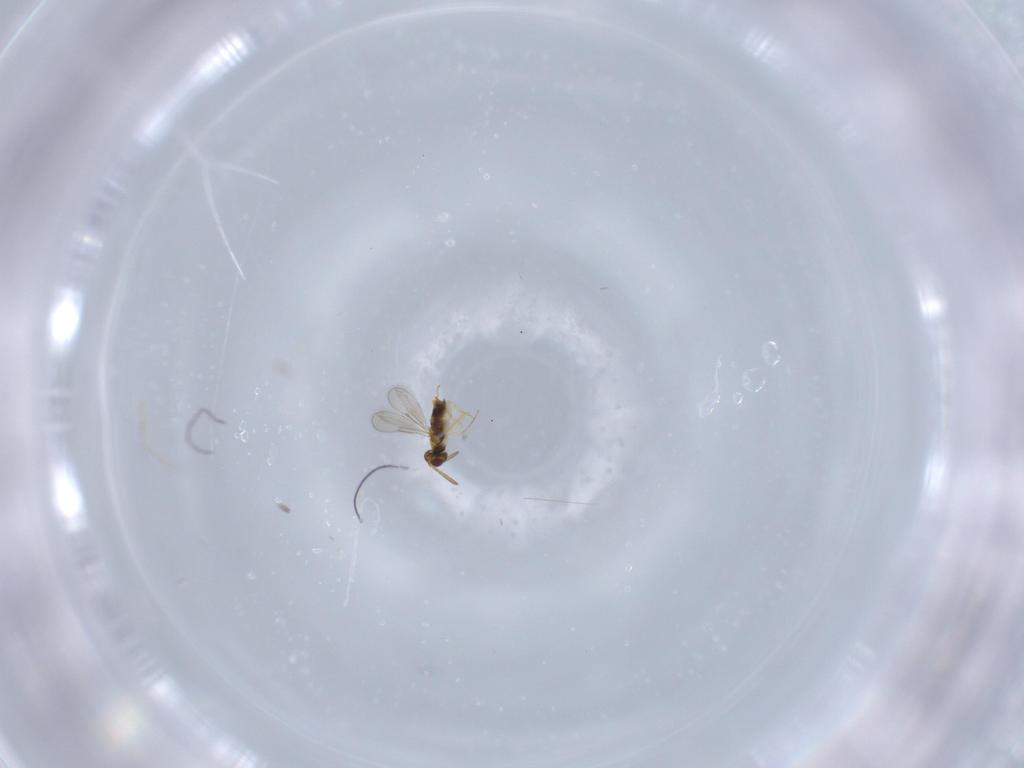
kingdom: Animalia
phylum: Arthropoda
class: Insecta
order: Hymenoptera
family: Aphelinidae
